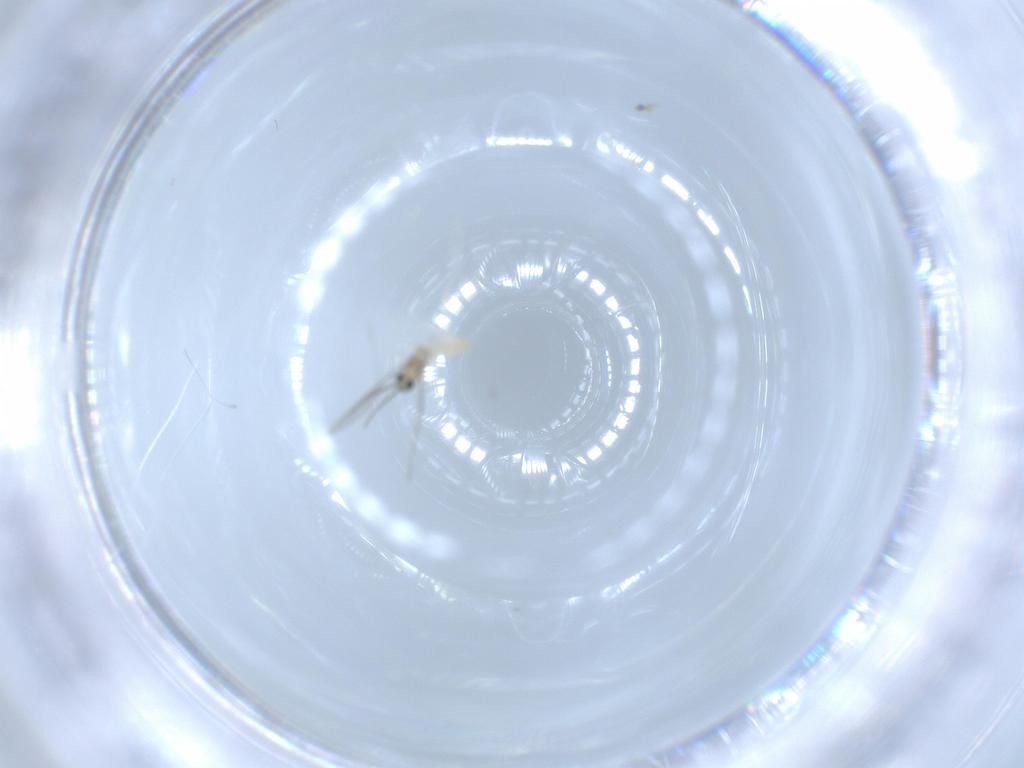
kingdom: Animalia
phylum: Arthropoda
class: Insecta
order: Diptera
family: Cecidomyiidae
